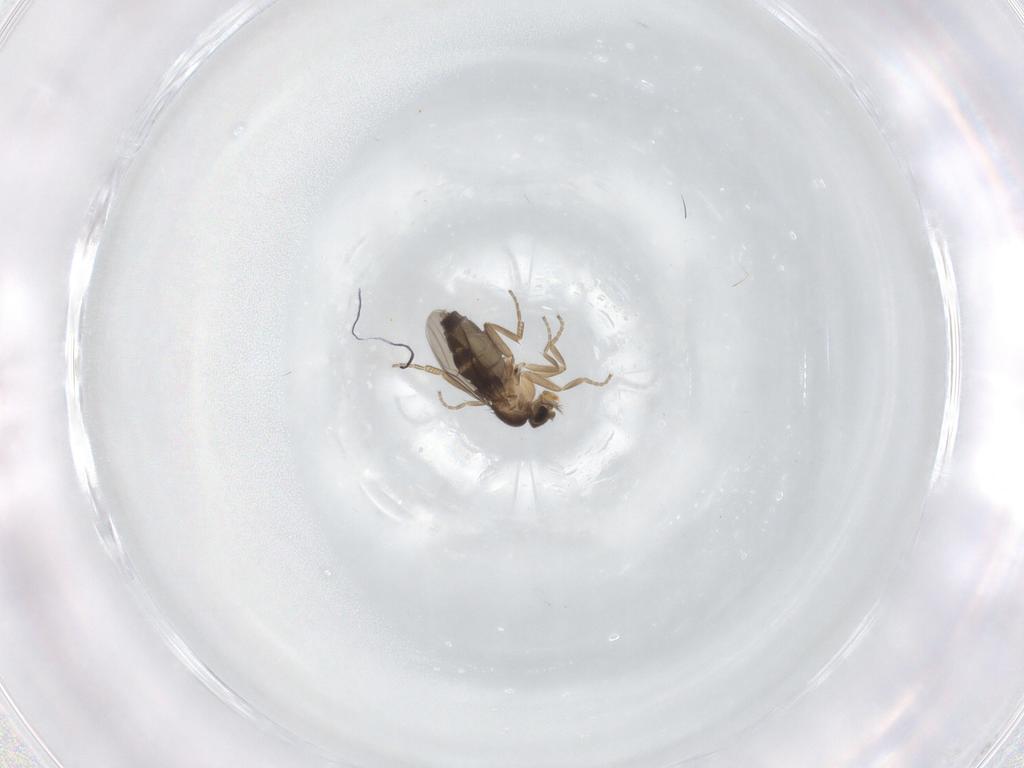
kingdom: Animalia
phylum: Arthropoda
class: Insecta
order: Diptera
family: Phoridae
